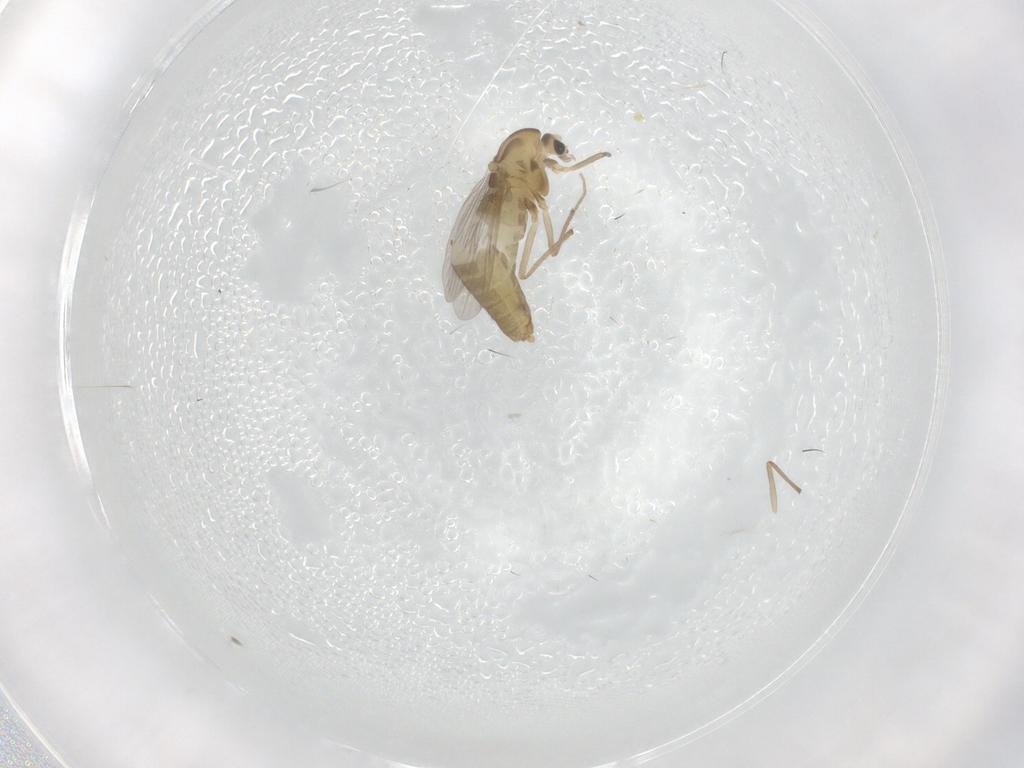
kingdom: Animalia
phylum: Arthropoda
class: Insecta
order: Diptera
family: Chironomidae
